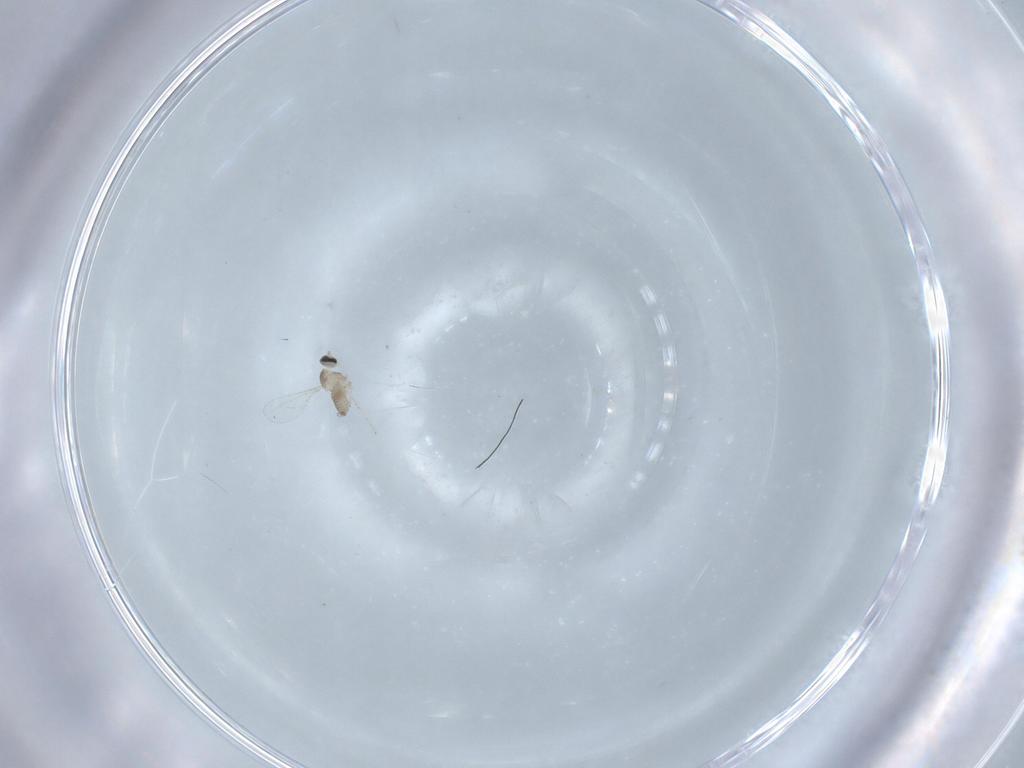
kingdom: Animalia
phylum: Arthropoda
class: Insecta
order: Diptera
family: Cecidomyiidae
